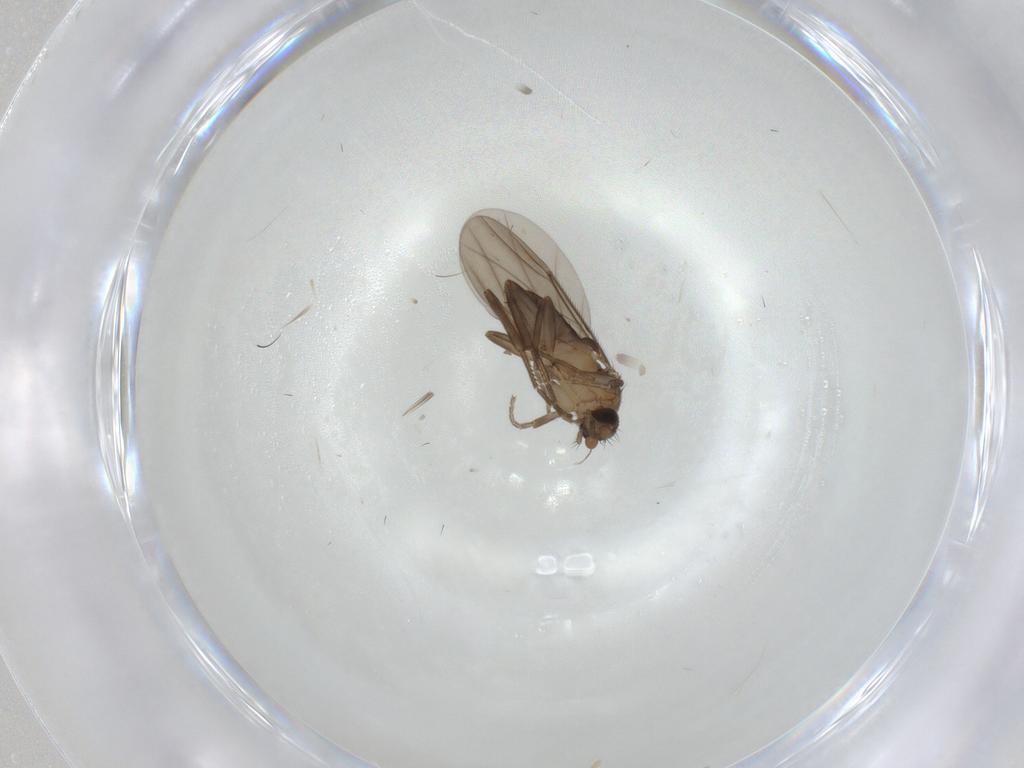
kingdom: Animalia
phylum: Arthropoda
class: Insecta
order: Diptera
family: Phoridae
